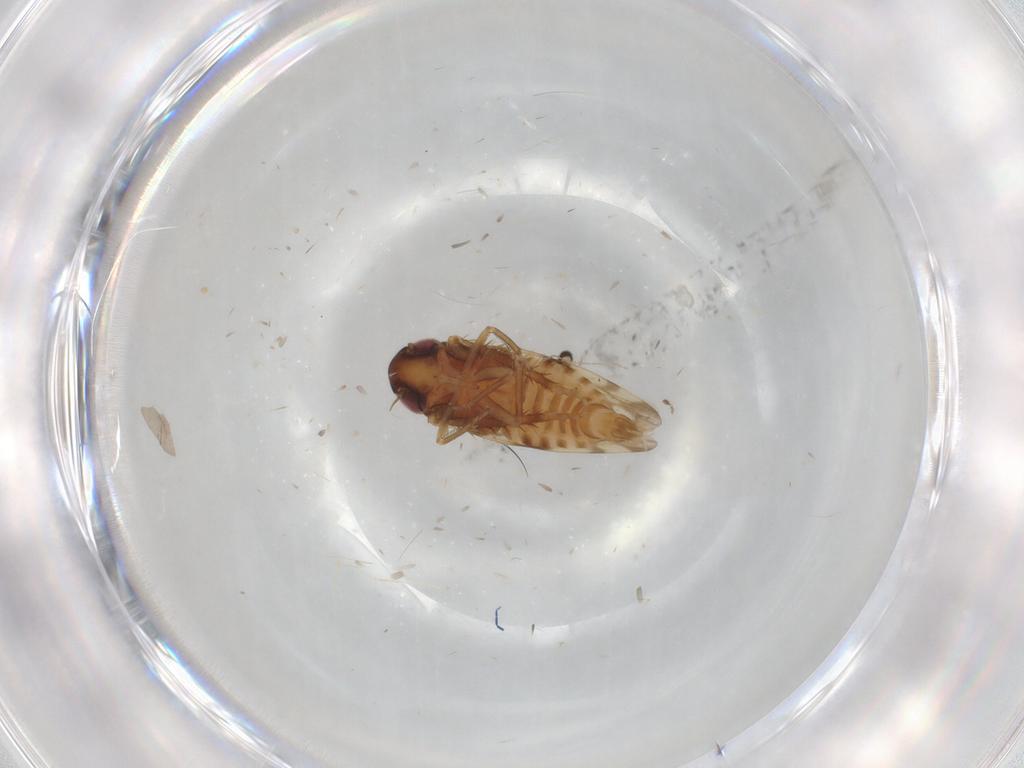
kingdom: Animalia
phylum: Arthropoda
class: Insecta
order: Hemiptera
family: Cicadellidae
